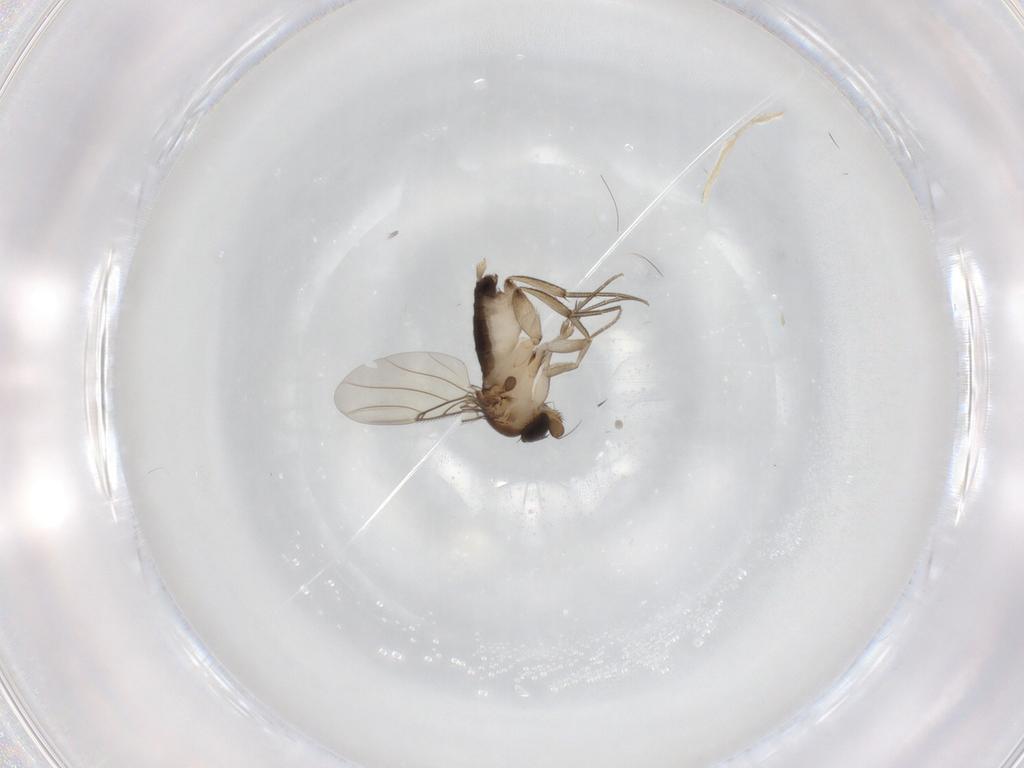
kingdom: Animalia
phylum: Arthropoda
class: Insecta
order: Diptera
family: Phoridae
